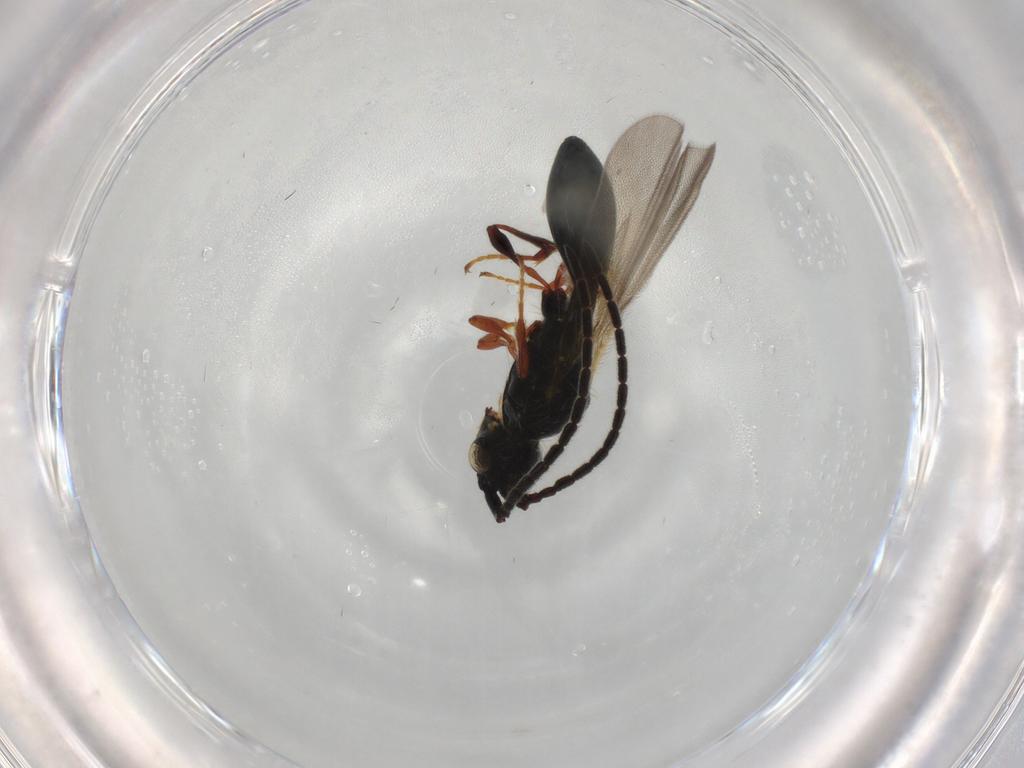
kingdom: Animalia
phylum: Arthropoda
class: Insecta
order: Hymenoptera
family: Diapriidae
